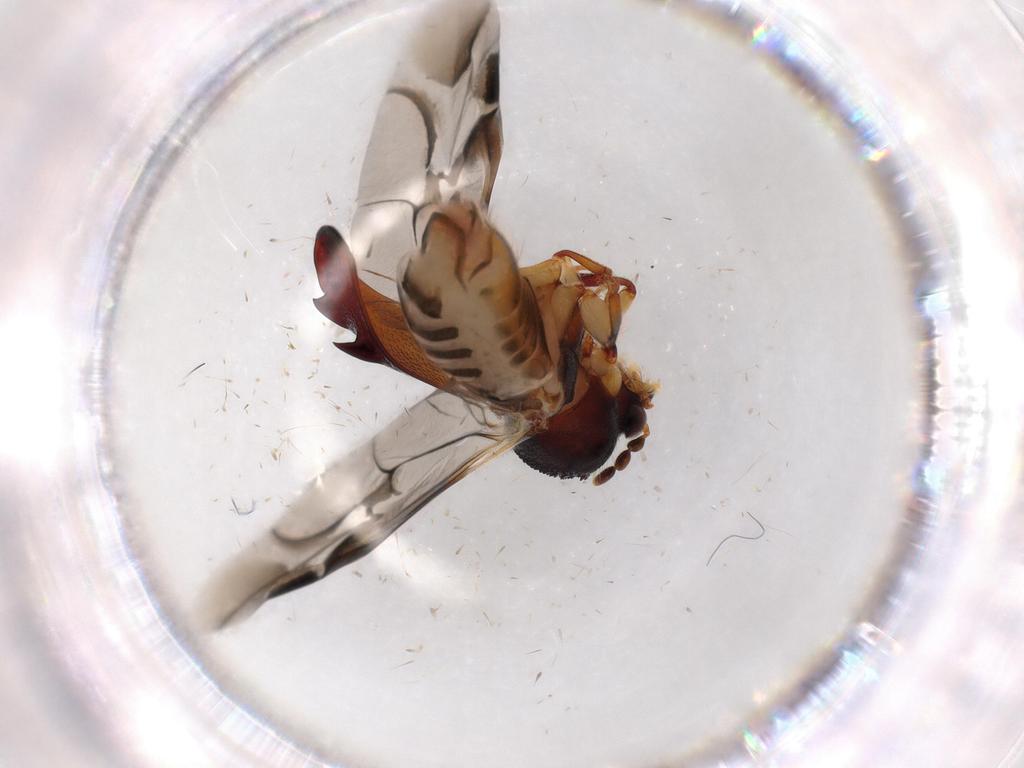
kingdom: Animalia
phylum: Arthropoda
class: Insecta
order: Coleoptera
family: Bostrichidae
